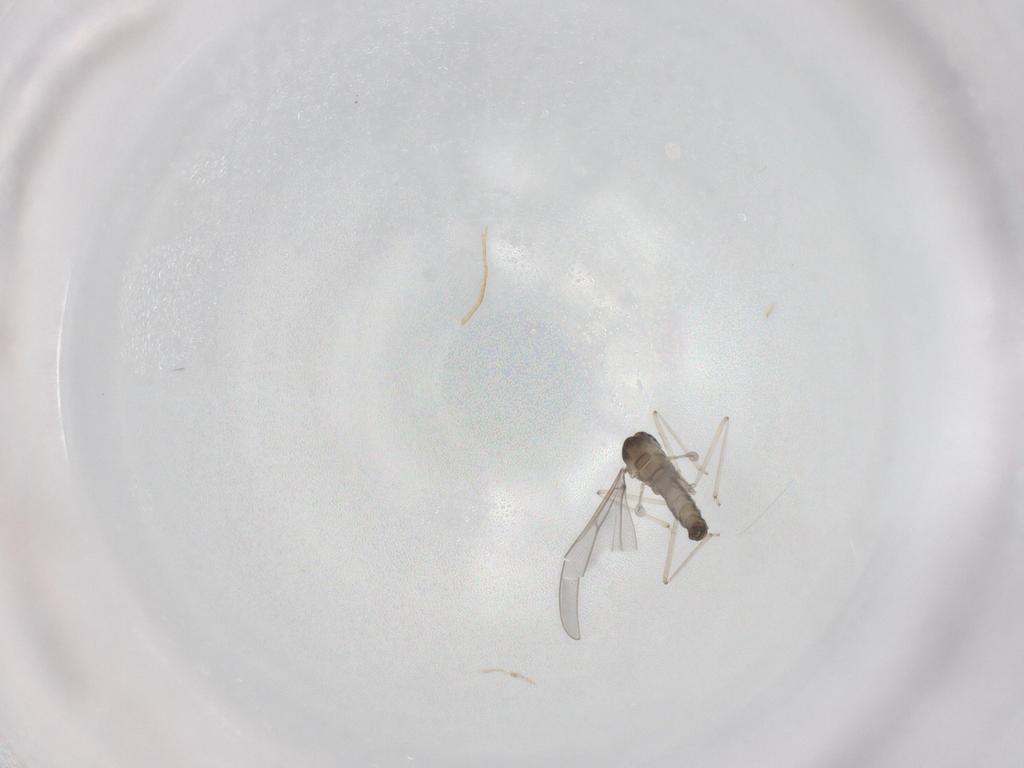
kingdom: Animalia
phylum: Arthropoda
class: Insecta
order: Diptera
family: Cecidomyiidae
